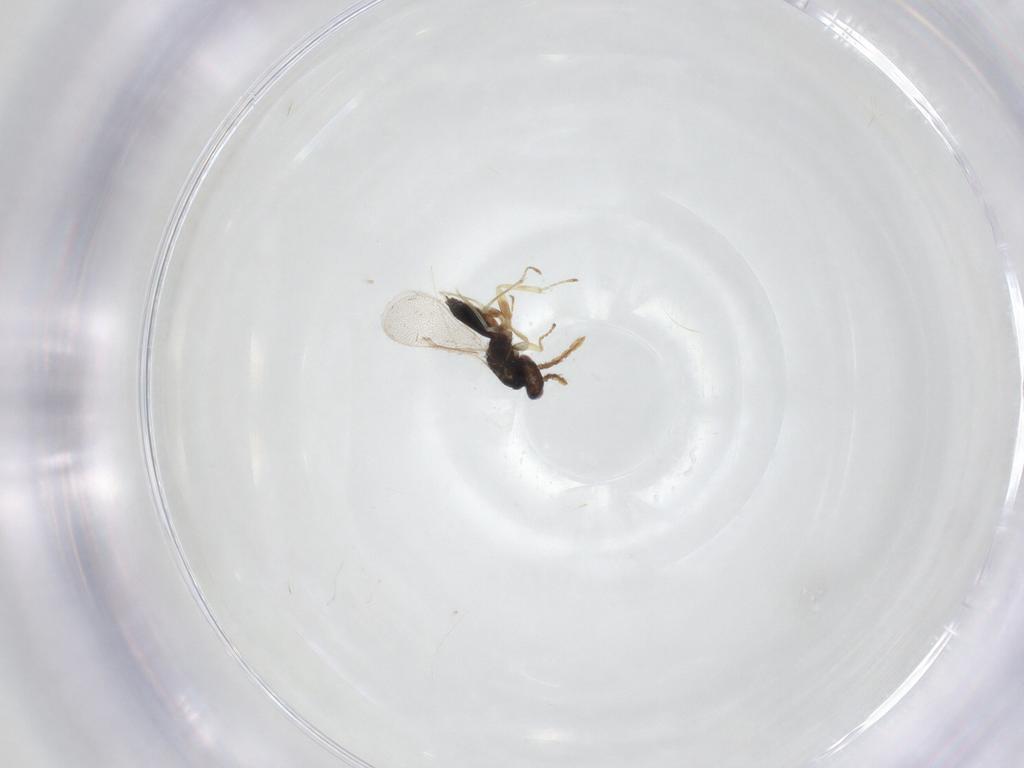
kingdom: Animalia
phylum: Arthropoda
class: Insecta
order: Hymenoptera
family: Eulophidae
